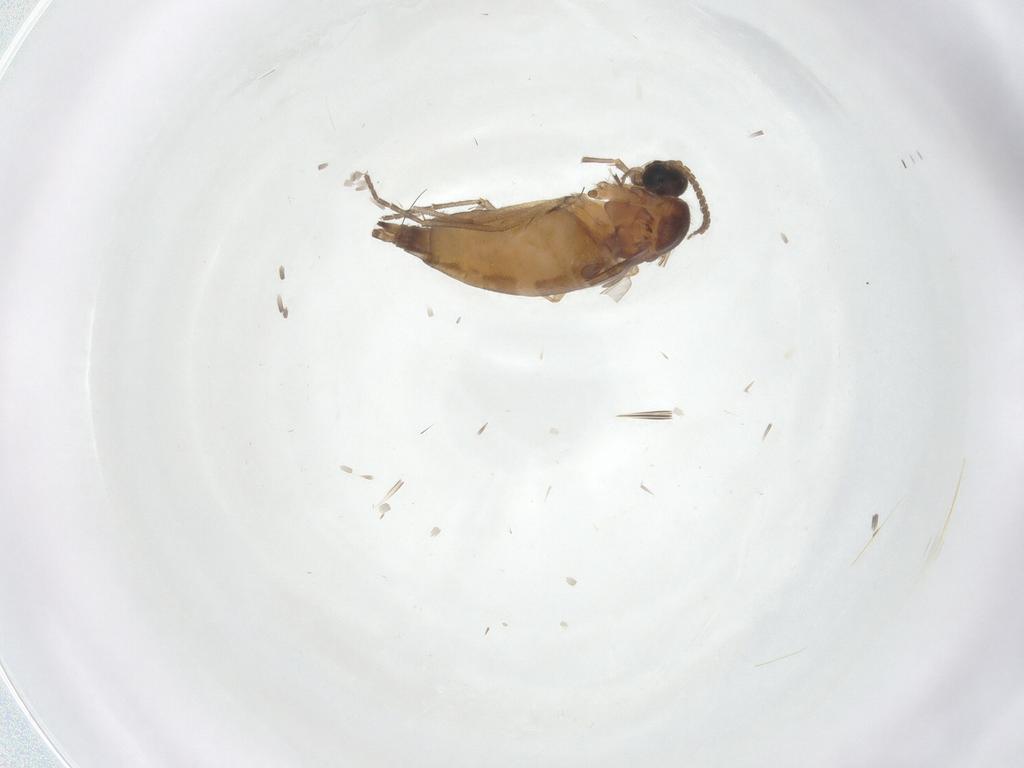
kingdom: Animalia
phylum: Arthropoda
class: Insecta
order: Diptera
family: Sciaridae
